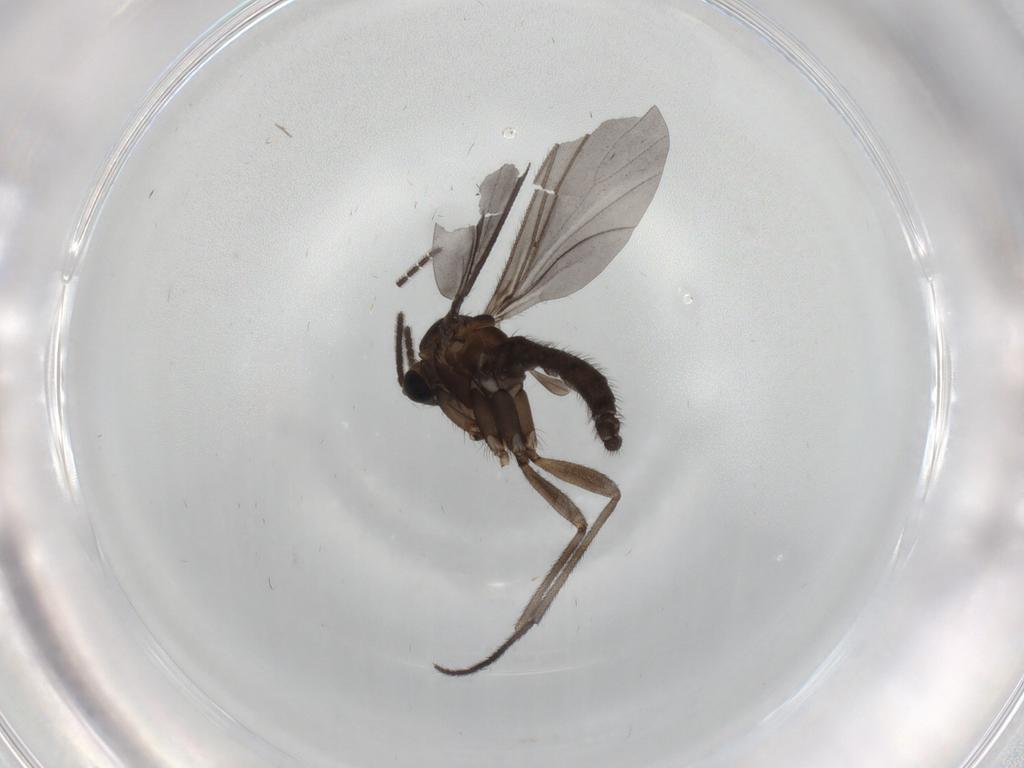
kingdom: Animalia
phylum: Arthropoda
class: Insecta
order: Diptera
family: Sciaridae
